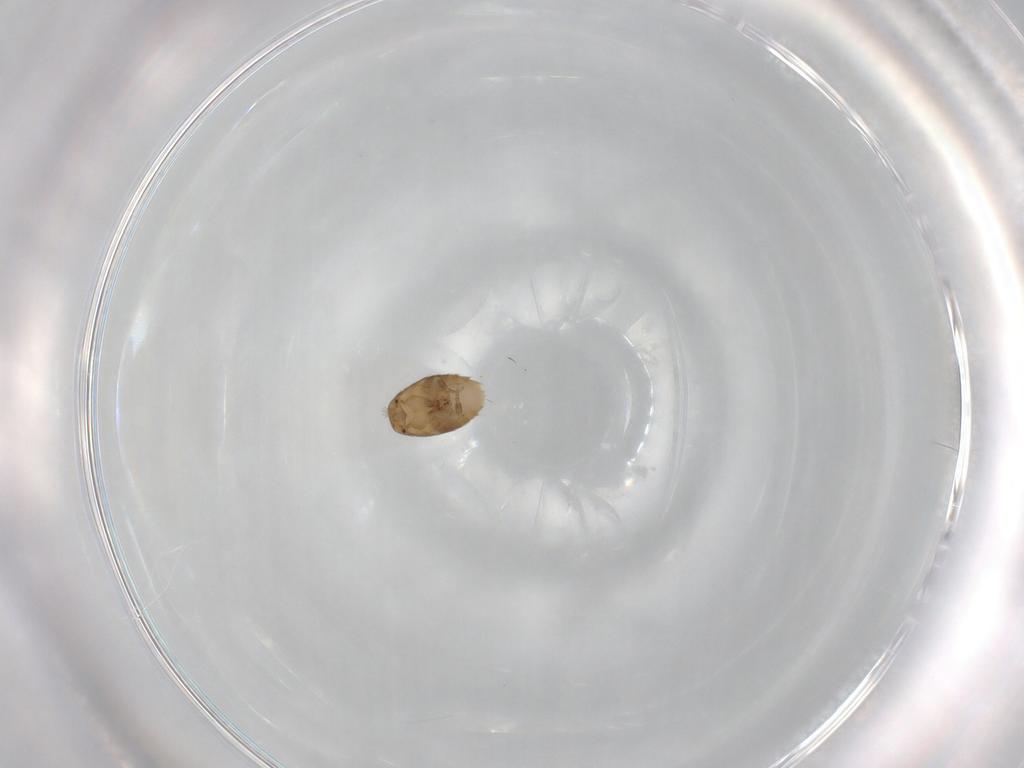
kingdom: Animalia
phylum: Arthropoda
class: Insecta
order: Diptera
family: Phoridae
